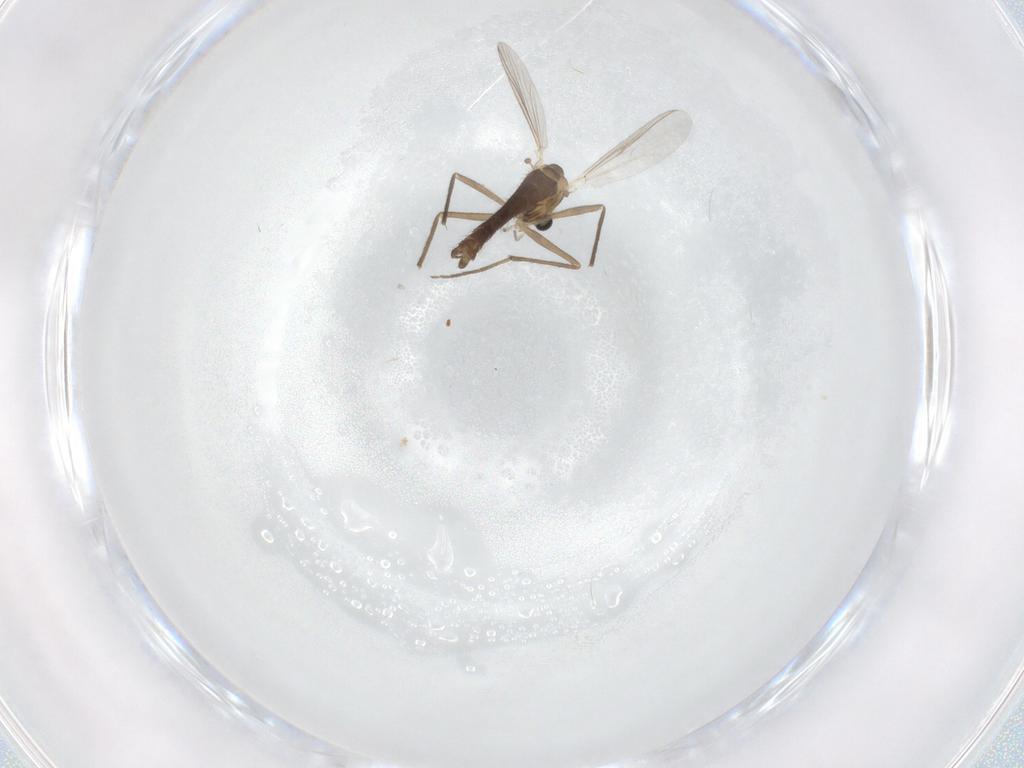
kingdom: Animalia
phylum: Arthropoda
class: Insecta
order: Diptera
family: Chironomidae
